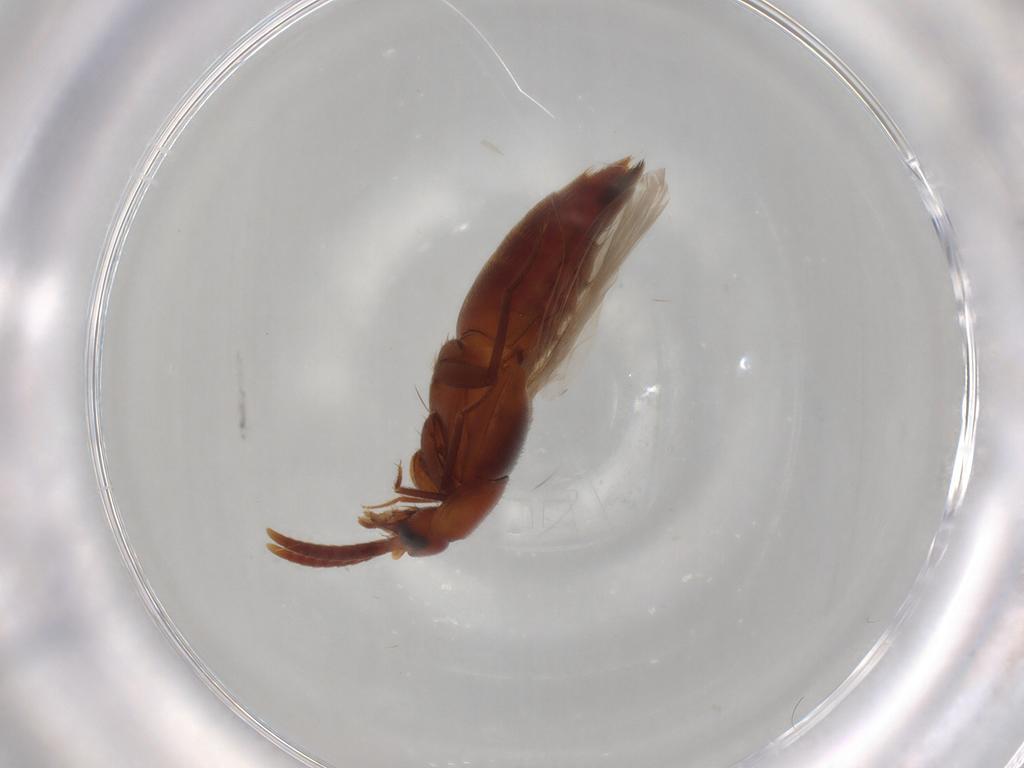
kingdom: Animalia
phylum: Arthropoda
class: Insecta
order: Coleoptera
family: Staphylinidae
